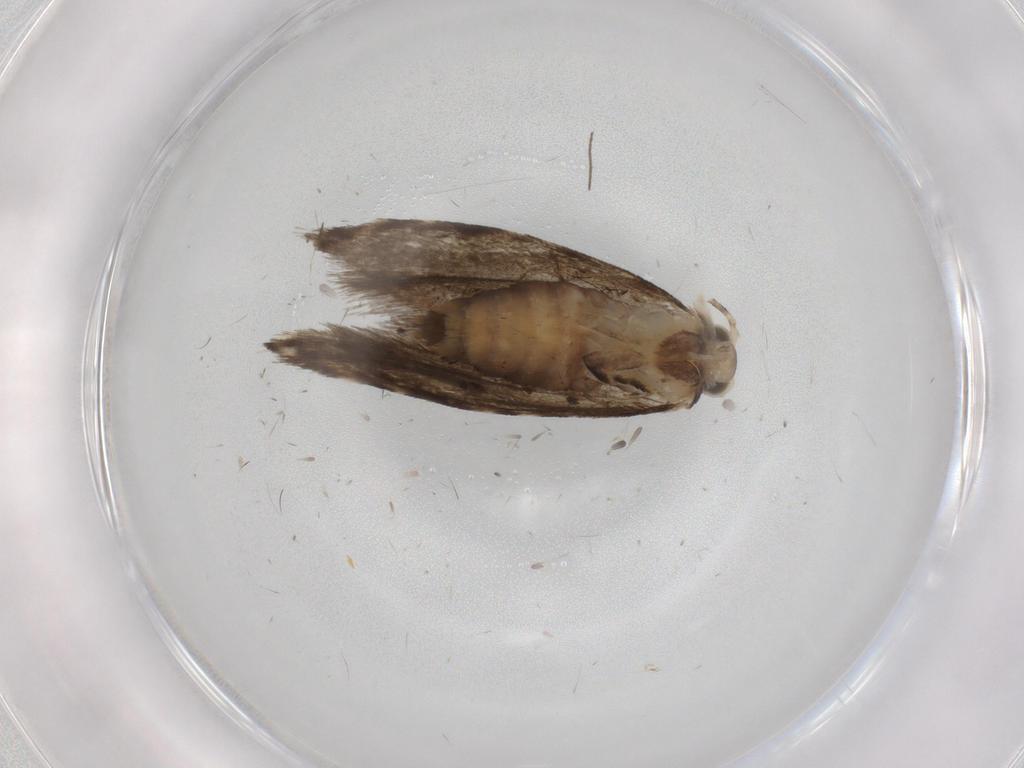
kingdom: Animalia
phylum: Arthropoda
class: Insecta
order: Lepidoptera
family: Tineidae
